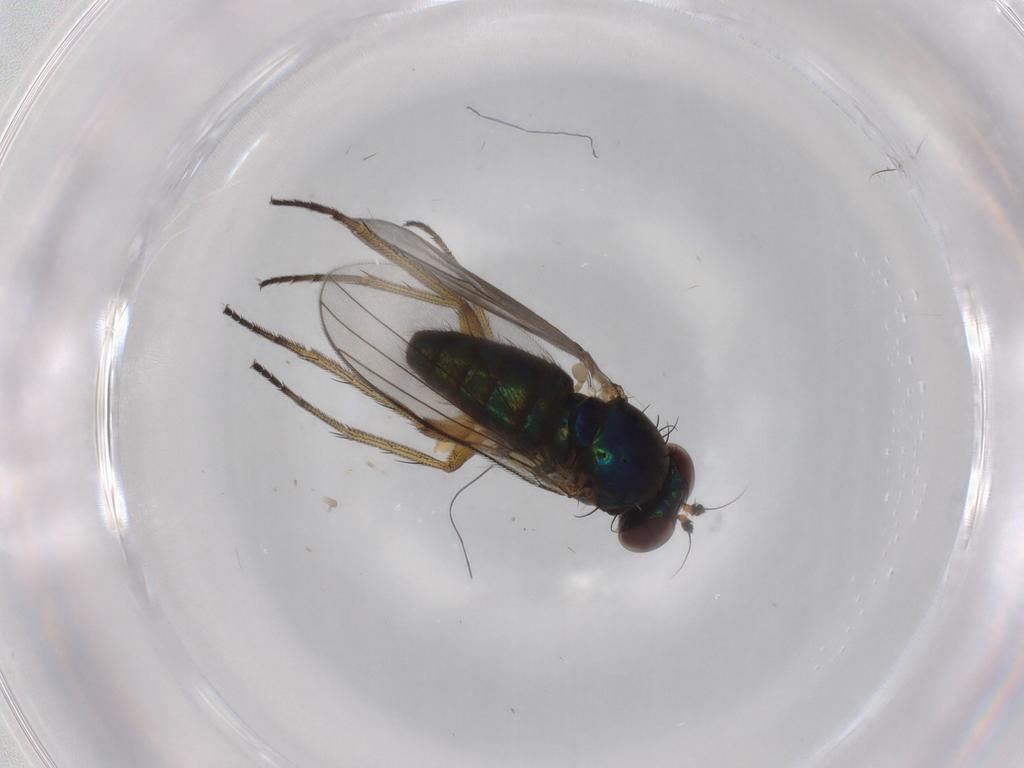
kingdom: Animalia
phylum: Arthropoda
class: Insecta
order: Diptera
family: Dolichopodidae
